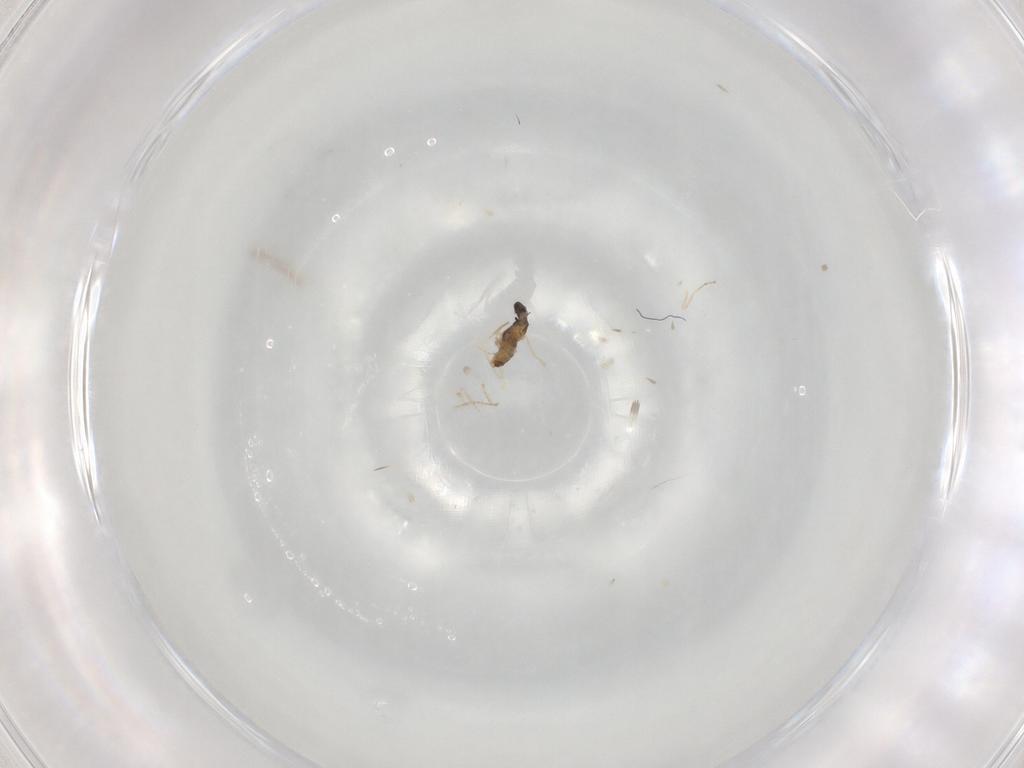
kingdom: Animalia
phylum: Arthropoda
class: Insecta
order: Diptera
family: Cecidomyiidae
